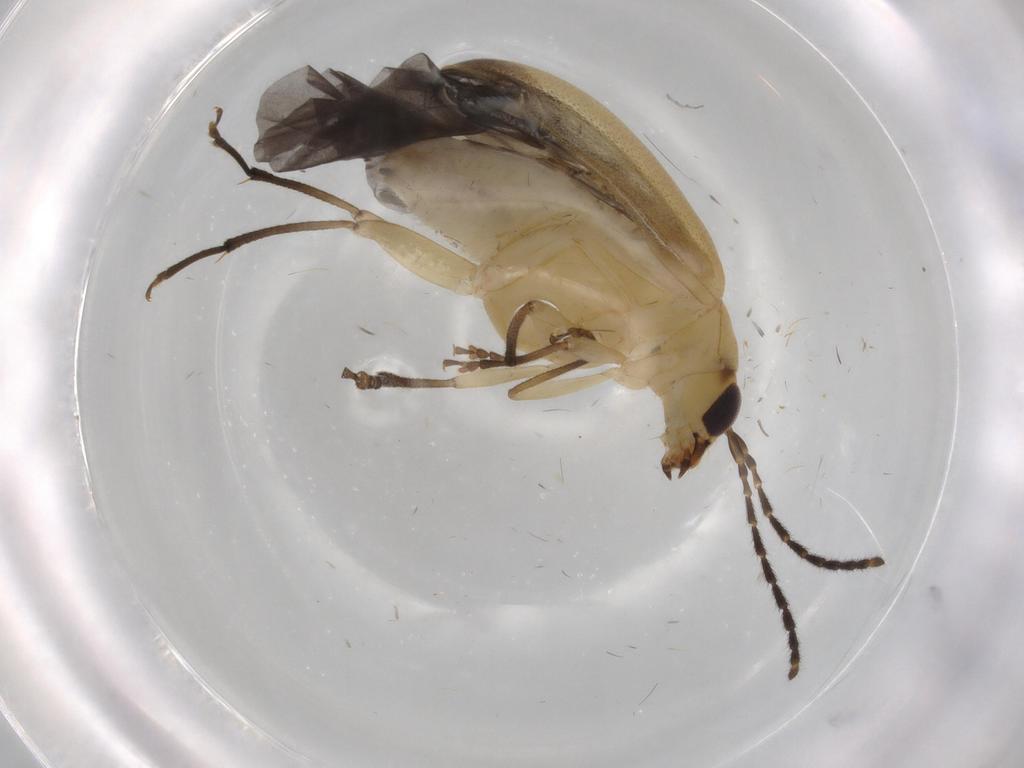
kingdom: Animalia
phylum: Arthropoda
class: Insecta
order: Coleoptera
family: Chrysomelidae
